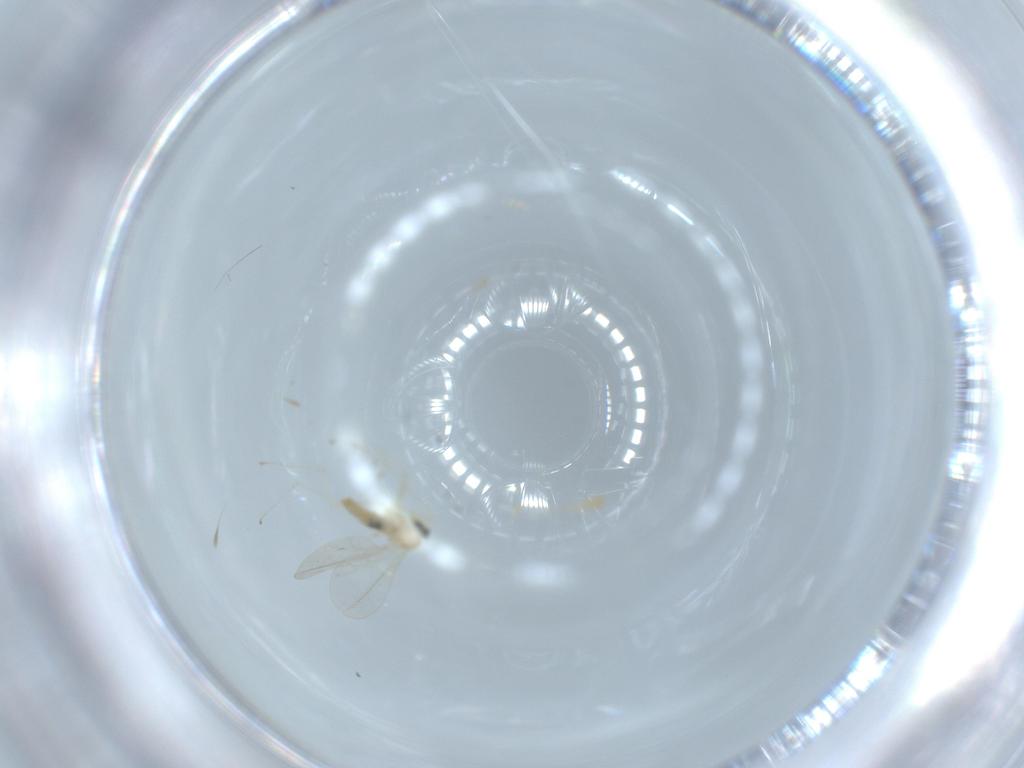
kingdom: Animalia
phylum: Arthropoda
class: Insecta
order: Diptera
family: Cecidomyiidae
